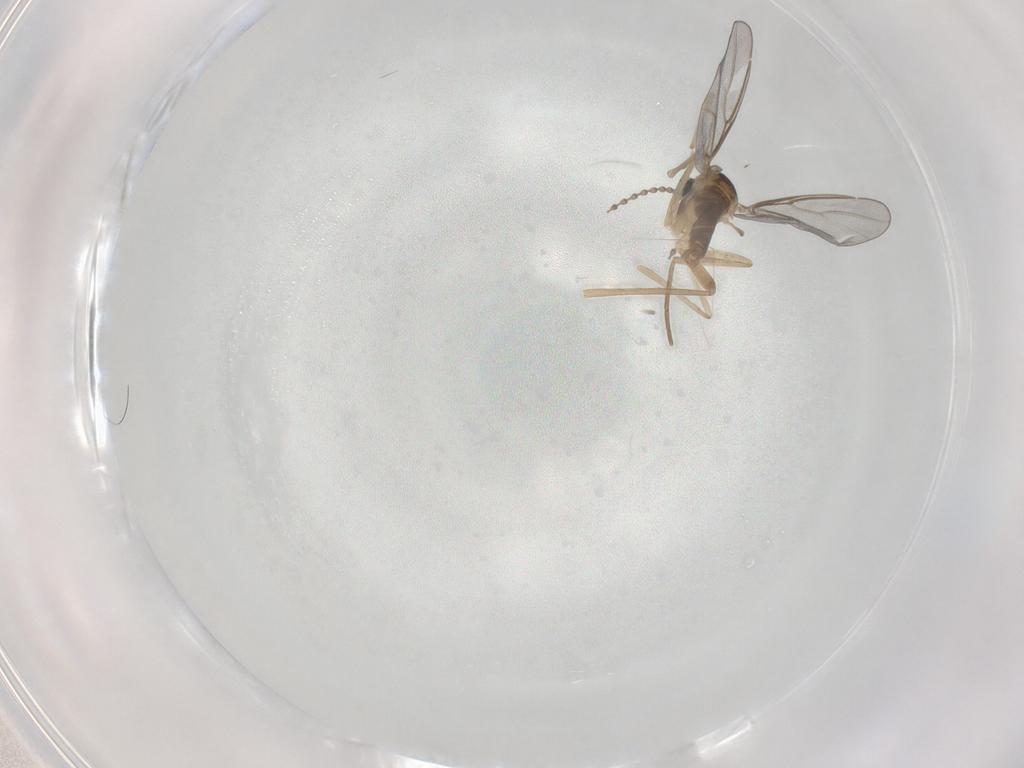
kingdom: Animalia
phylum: Arthropoda
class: Insecta
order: Diptera
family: Cecidomyiidae
